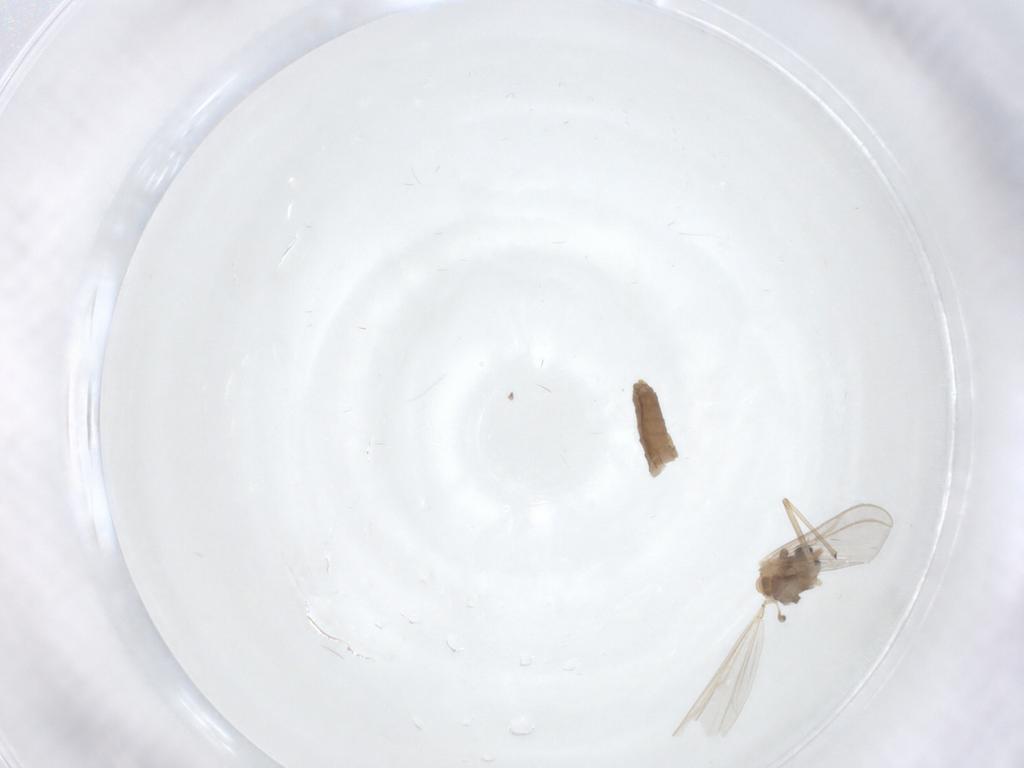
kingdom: Animalia
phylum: Arthropoda
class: Insecta
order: Diptera
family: Chironomidae
